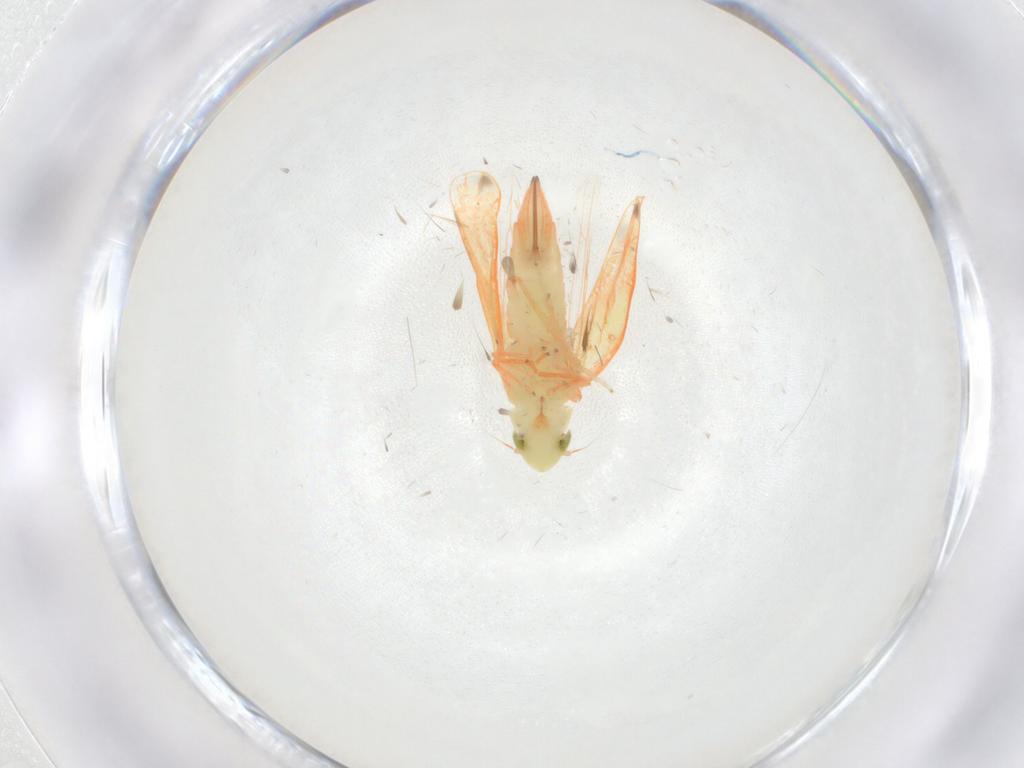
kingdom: Animalia
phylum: Arthropoda
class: Insecta
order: Hemiptera
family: Cicadellidae
